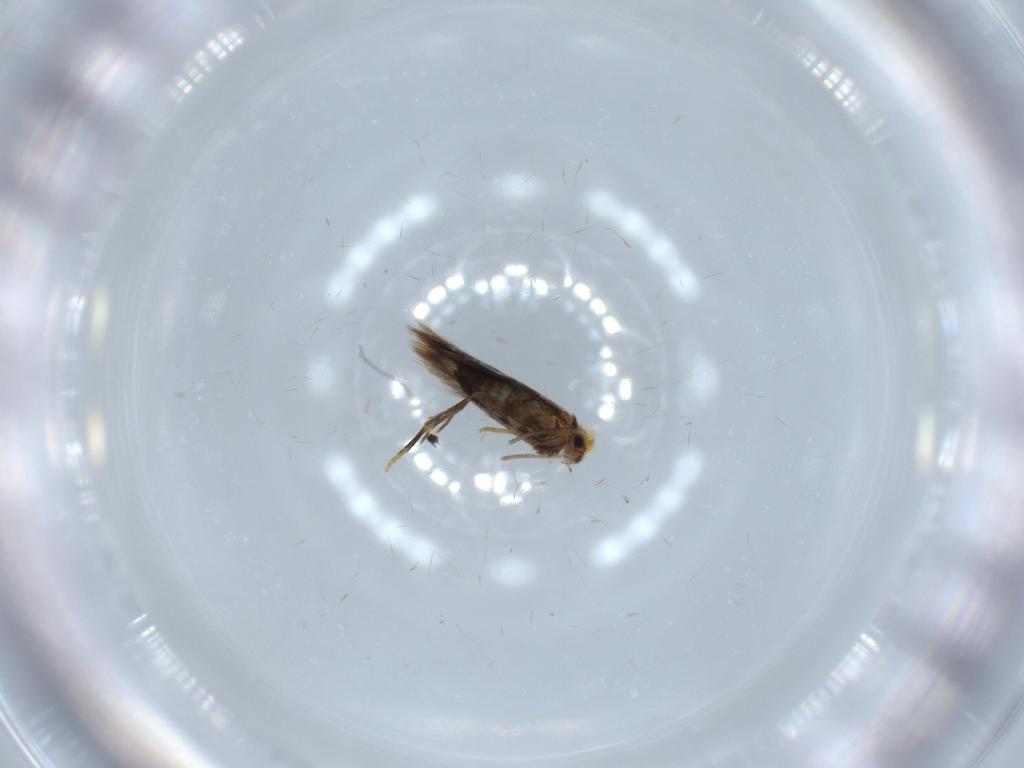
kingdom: Animalia
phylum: Arthropoda
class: Insecta
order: Lepidoptera
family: Nepticulidae
